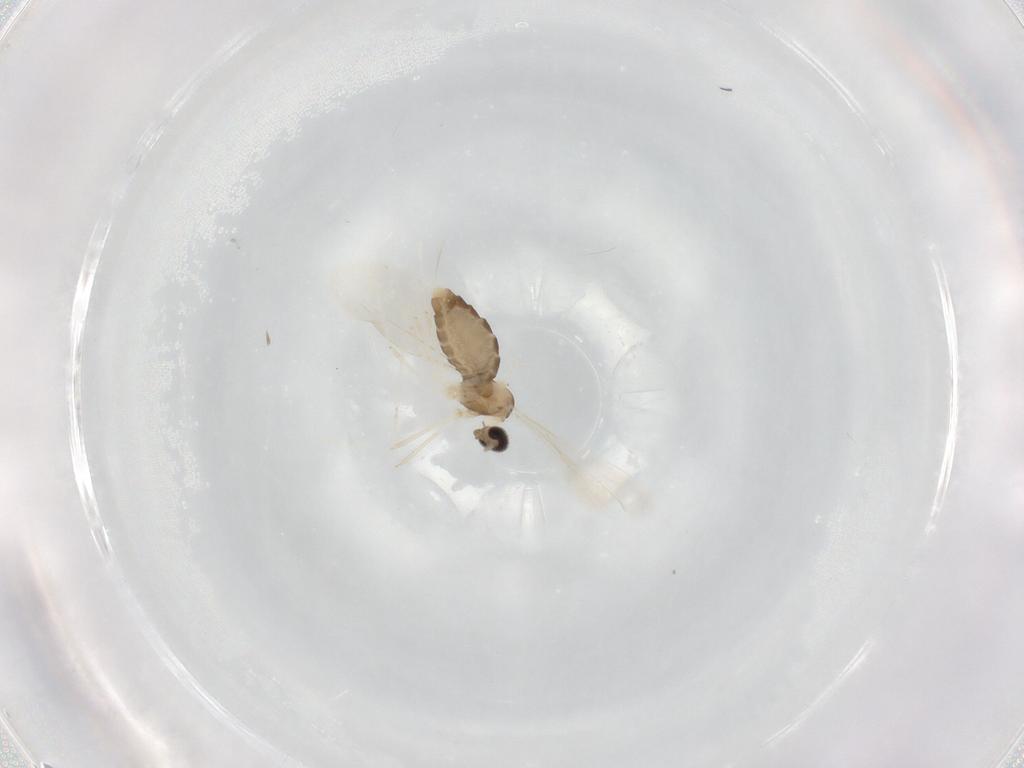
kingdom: Animalia
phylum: Arthropoda
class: Insecta
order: Diptera
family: Cecidomyiidae
